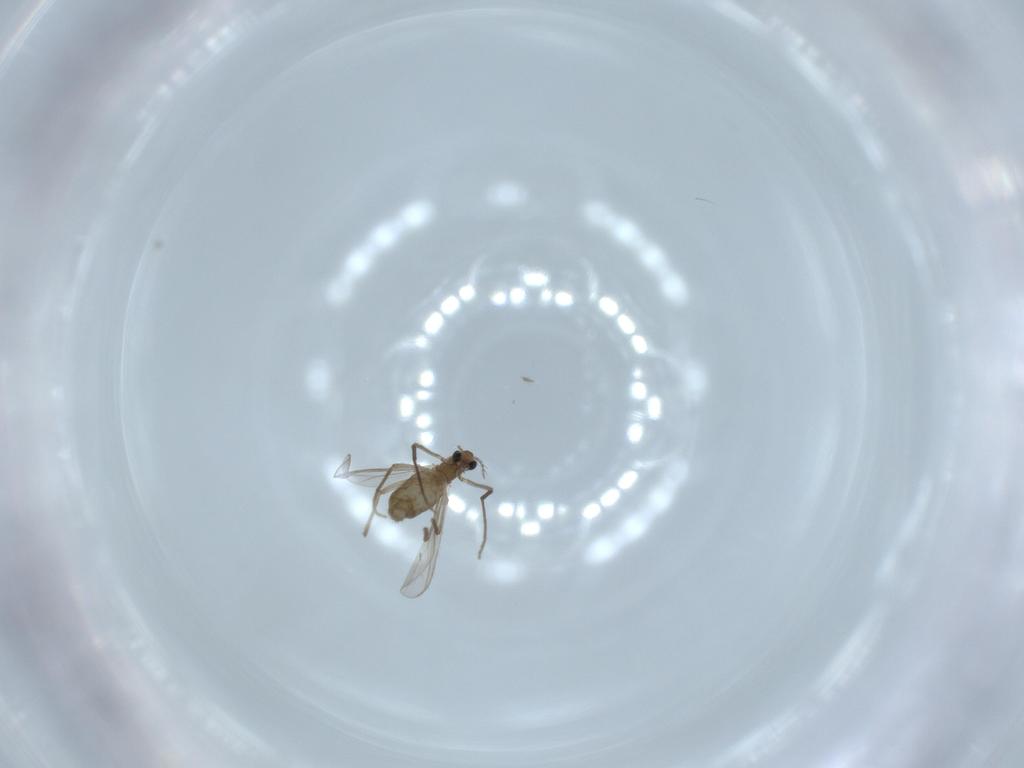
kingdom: Animalia
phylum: Arthropoda
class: Insecta
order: Diptera
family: Chironomidae
